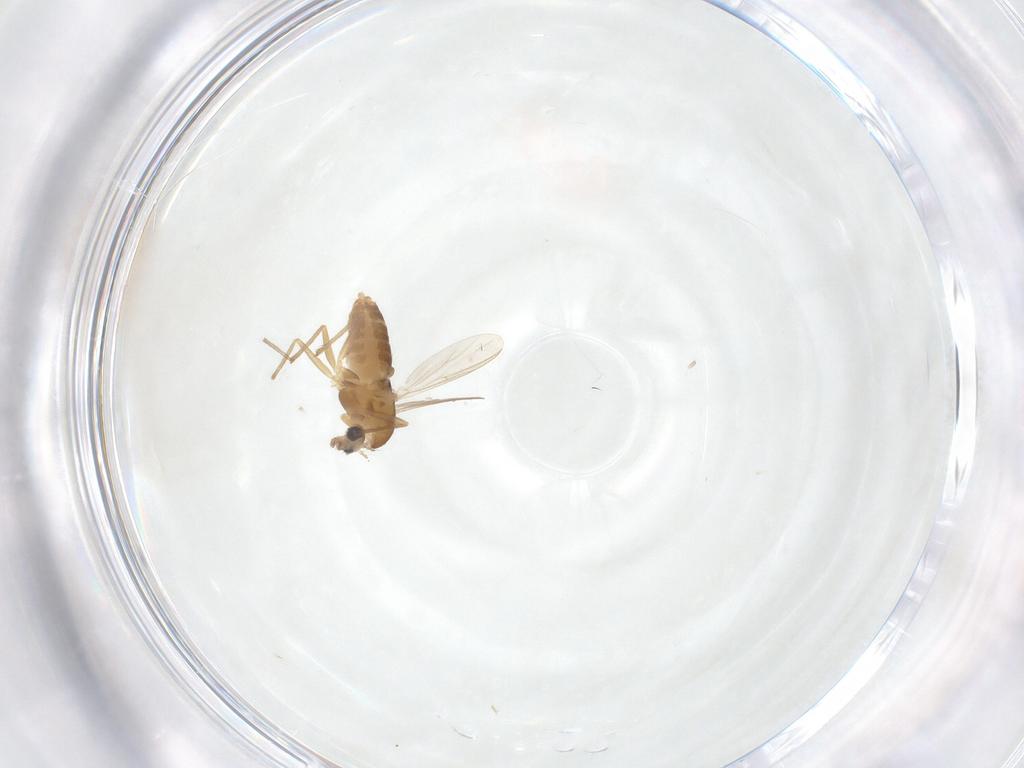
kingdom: Animalia
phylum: Arthropoda
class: Insecta
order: Diptera
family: Chironomidae
